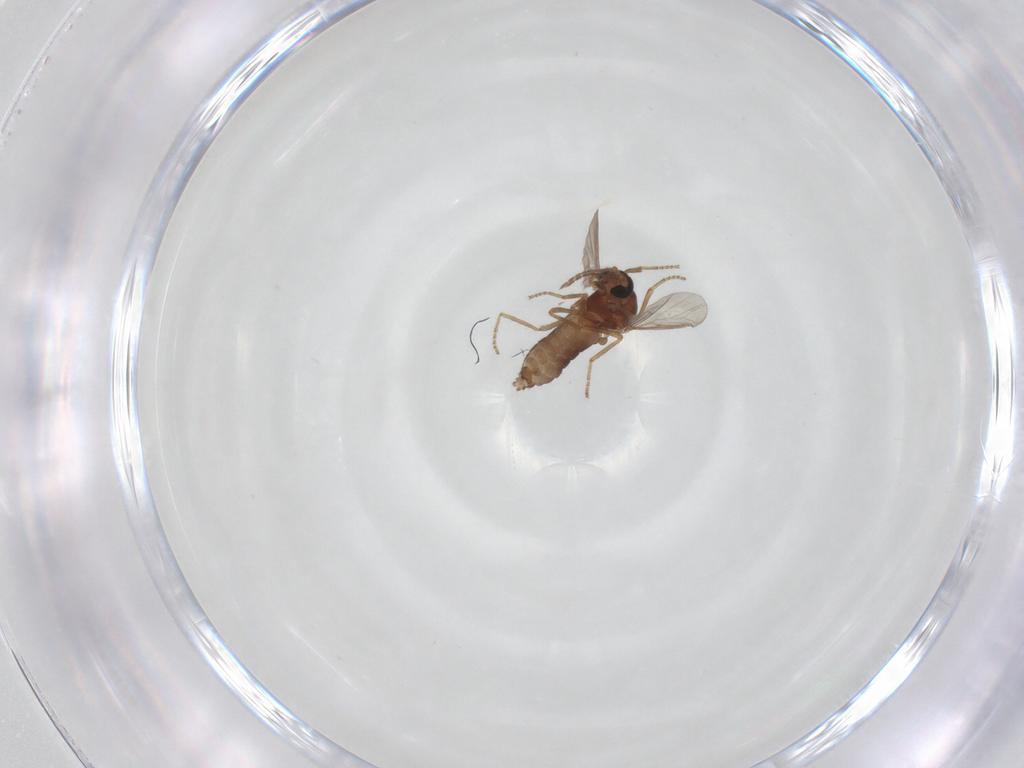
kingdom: Animalia
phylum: Arthropoda
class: Insecta
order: Diptera
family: Ceratopogonidae
